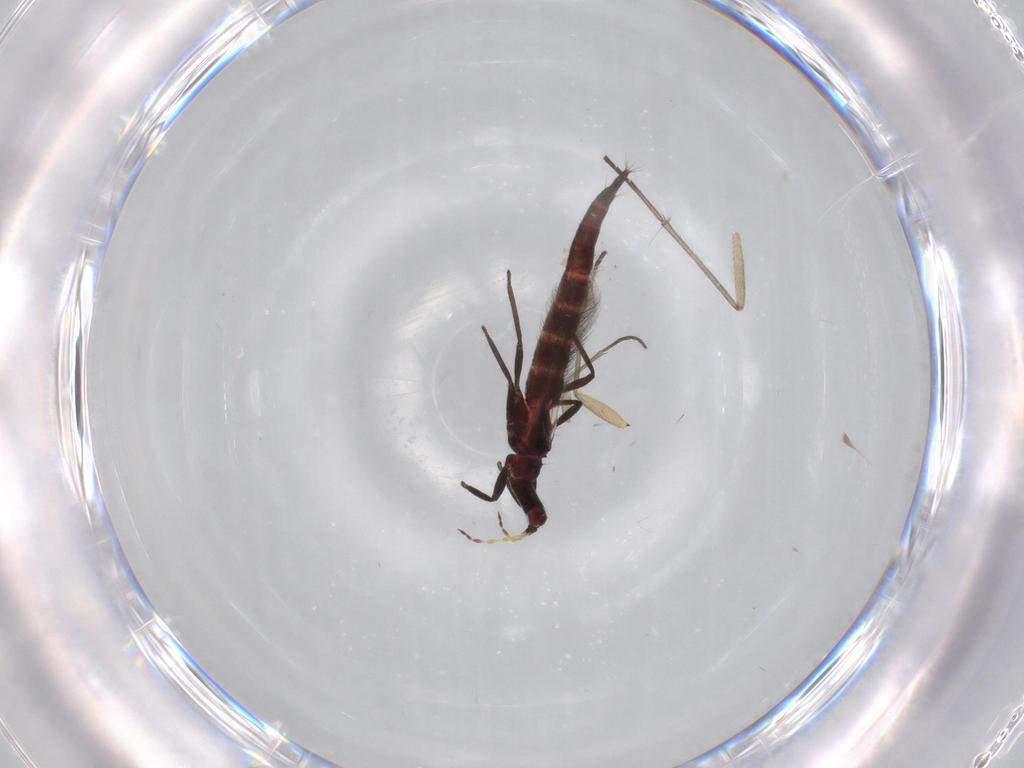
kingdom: Animalia
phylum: Arthropoda
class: Insecta
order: Thysanoptera
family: Phlaeothripidae
